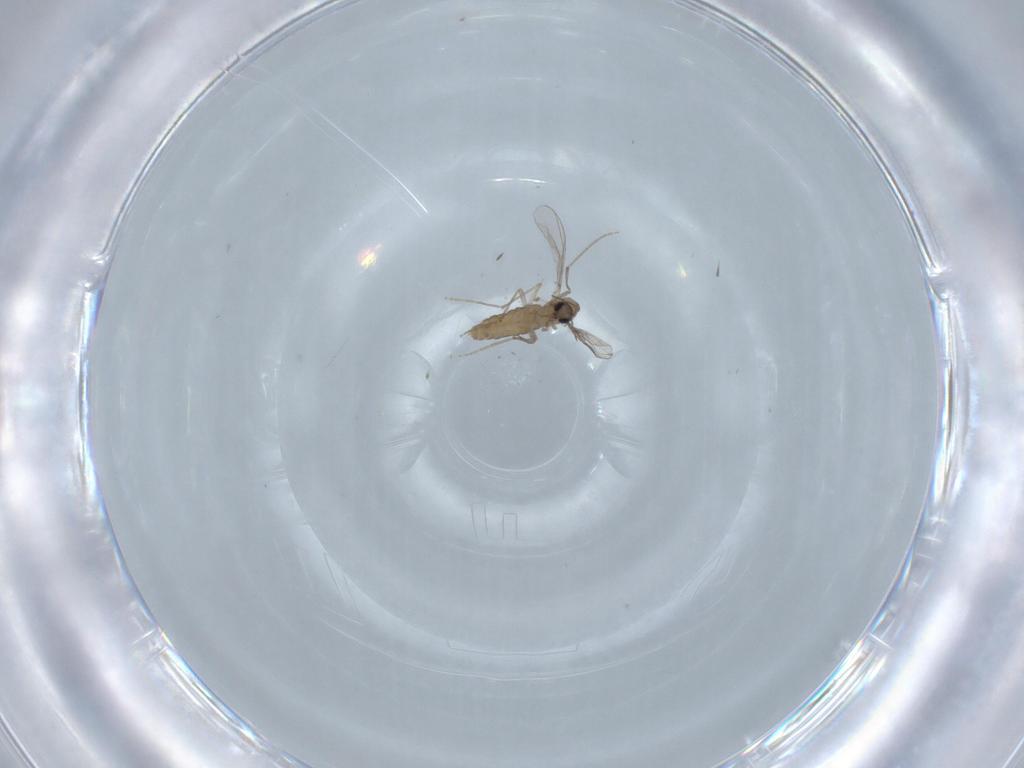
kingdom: Animalia
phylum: Arthropoda
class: Insecta
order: Diptera
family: Chironomidae
